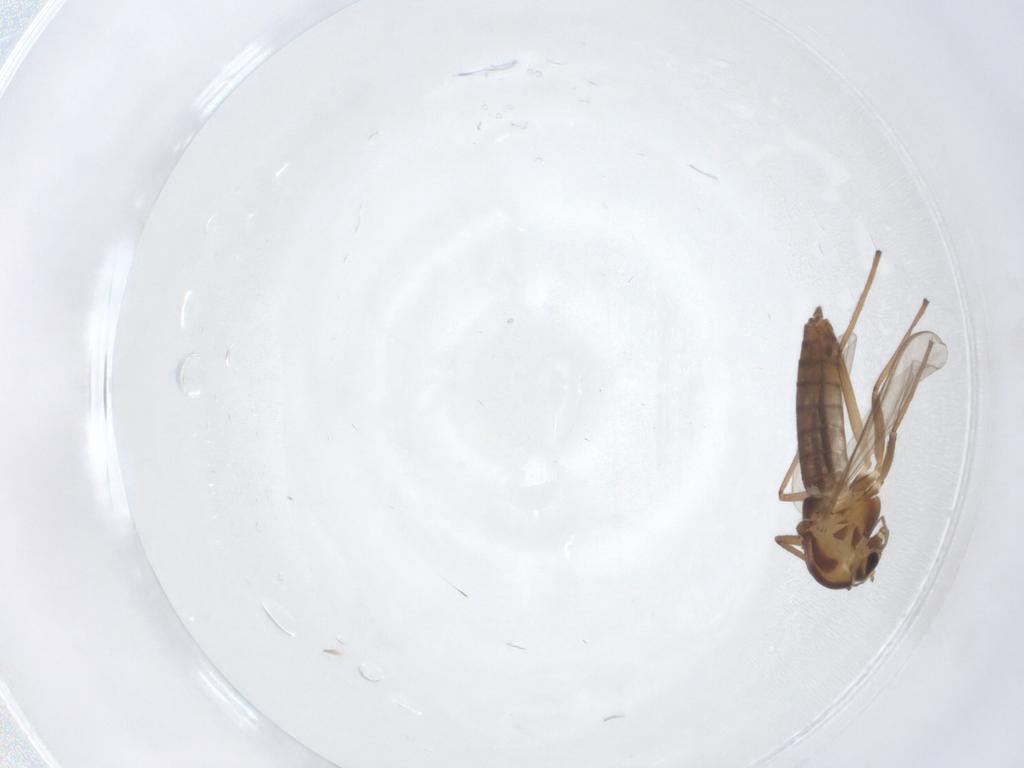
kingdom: Animalia
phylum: Arthropoda
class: Insecta
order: Diptera
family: Chironomidae
